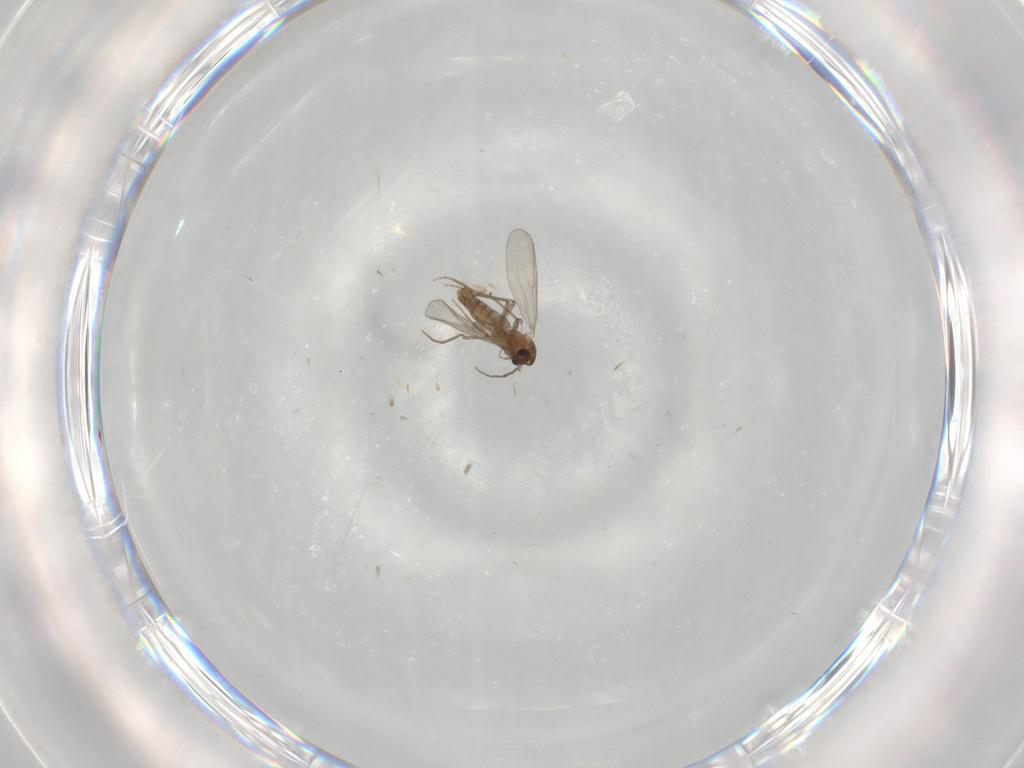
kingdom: Animalia
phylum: Arthropoda
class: Insecta
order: Diptera
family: Chironomidae
